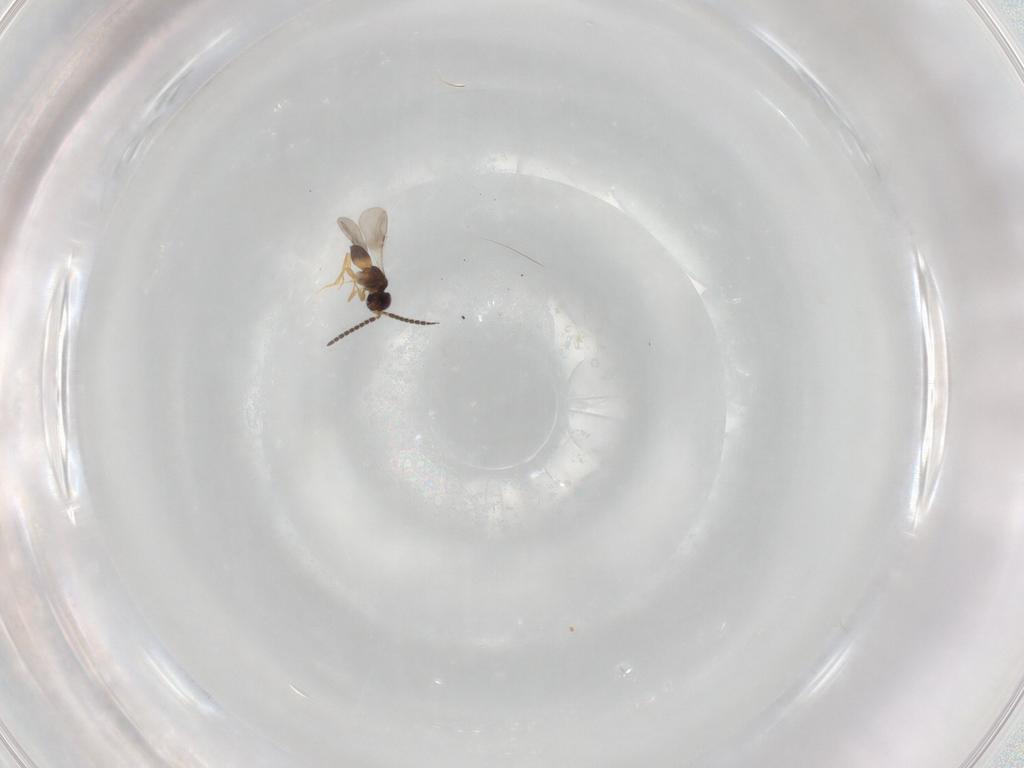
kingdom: Animalia
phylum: Arthropoda
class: Insecta
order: Hymenoptera
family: Ceraphronidae
